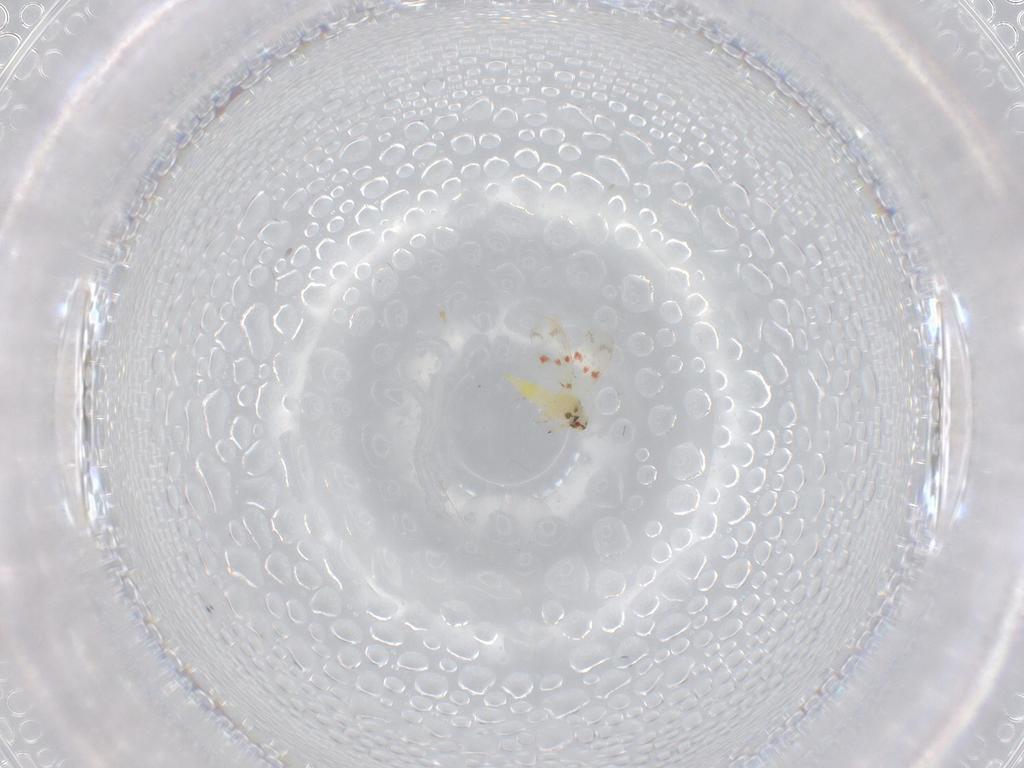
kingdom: Animalia
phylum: Arthropoda
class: Insecta
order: Hemiptera
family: Aleyrodidae
